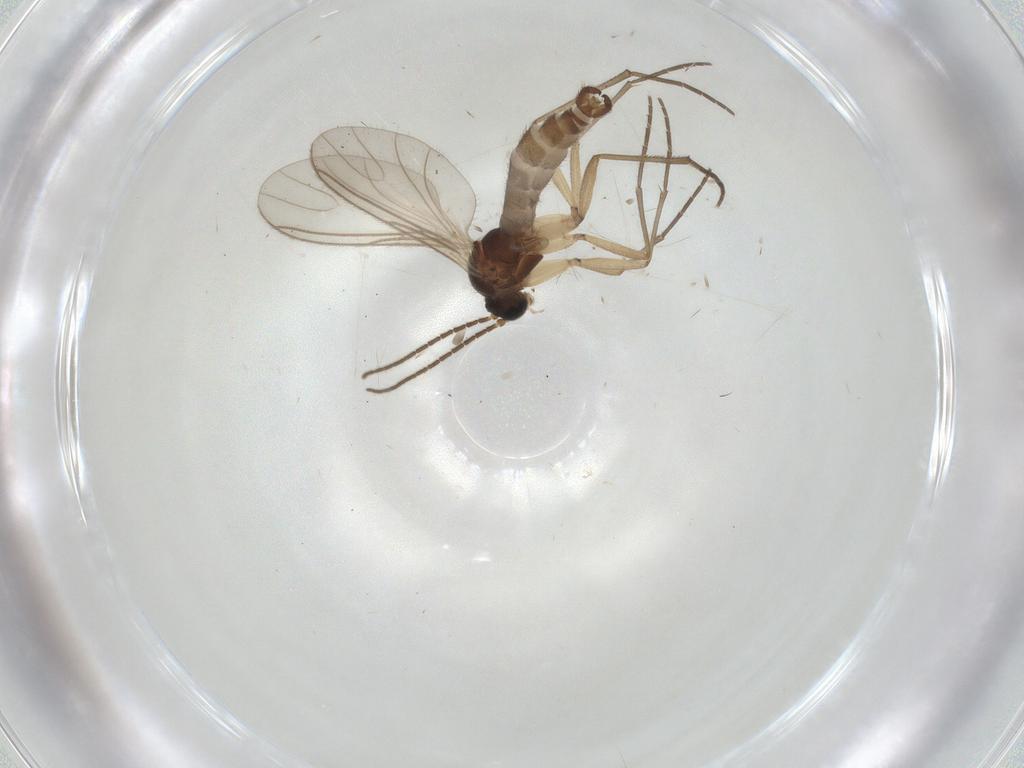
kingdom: Animalia
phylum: Arthropoda
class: Insecta
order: Diptera
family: Sciaridae
